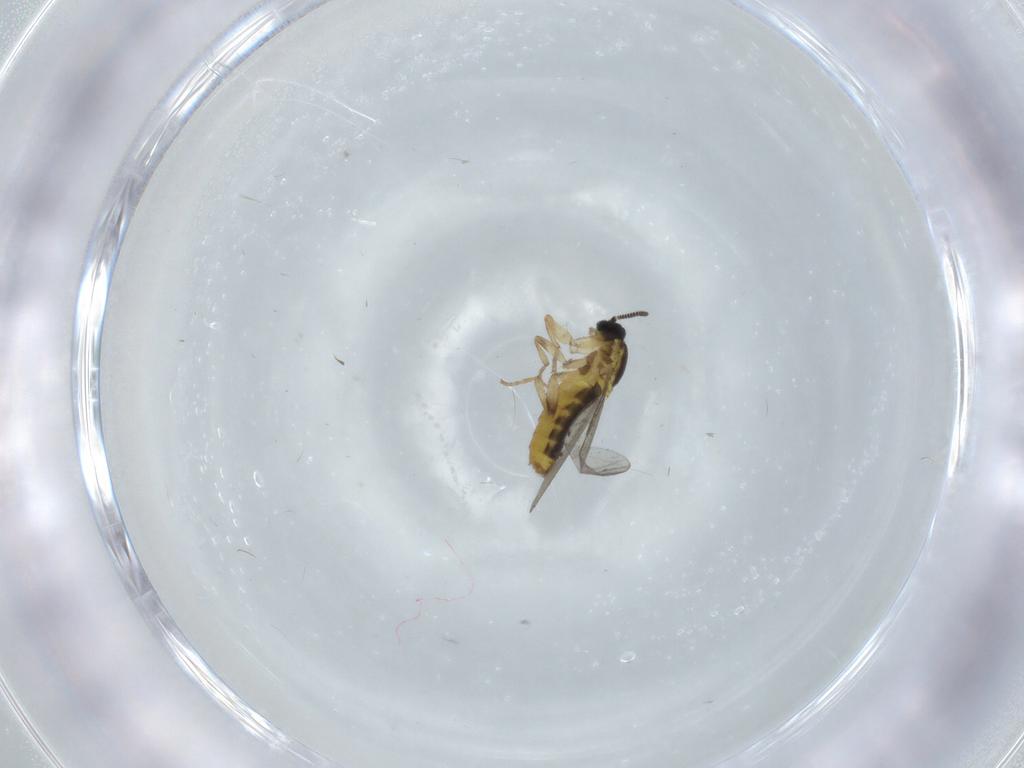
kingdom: Animalia
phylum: Arthropoda
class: Insecta
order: Diptera
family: Scatopsidae
